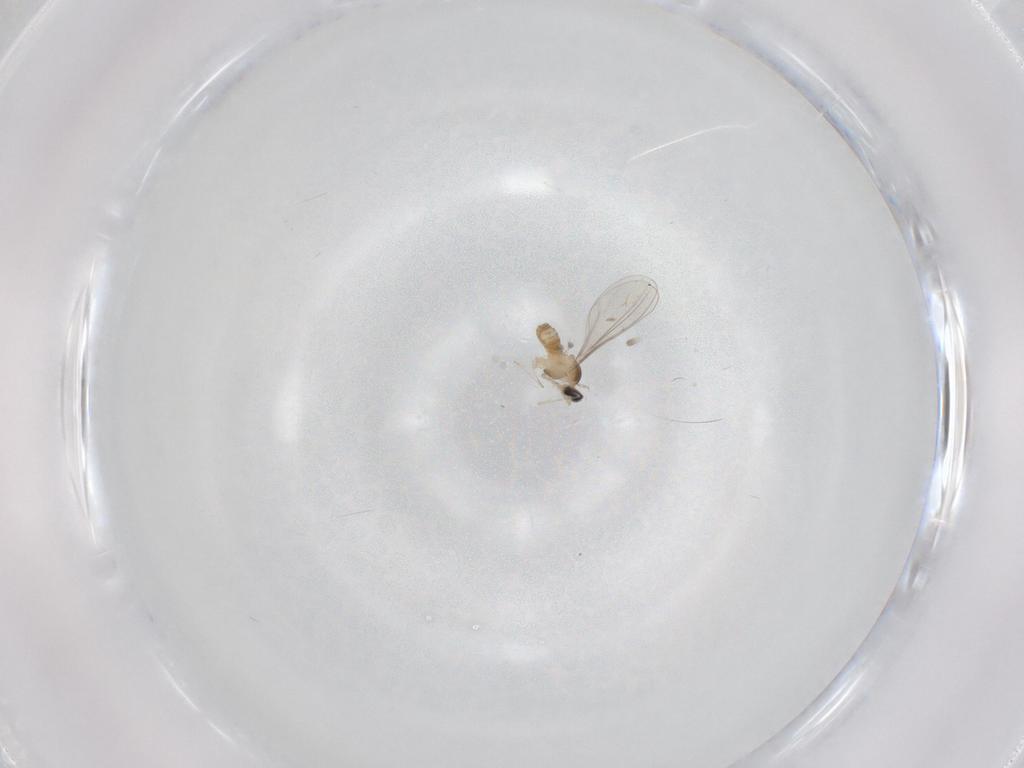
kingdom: Animalia
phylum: Arthropoda
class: Insecta
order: Diptera
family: Cecidomyiidae
